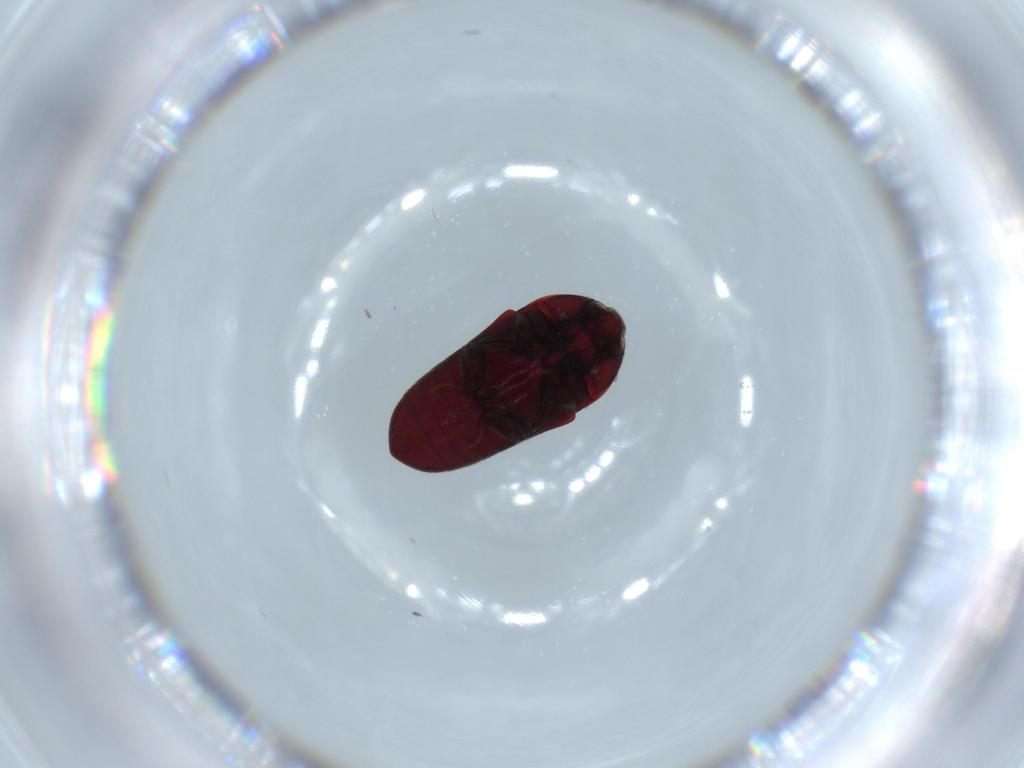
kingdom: Animalia
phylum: Arthropoda
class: Insecta
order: Coleoptera
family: Throscidae
